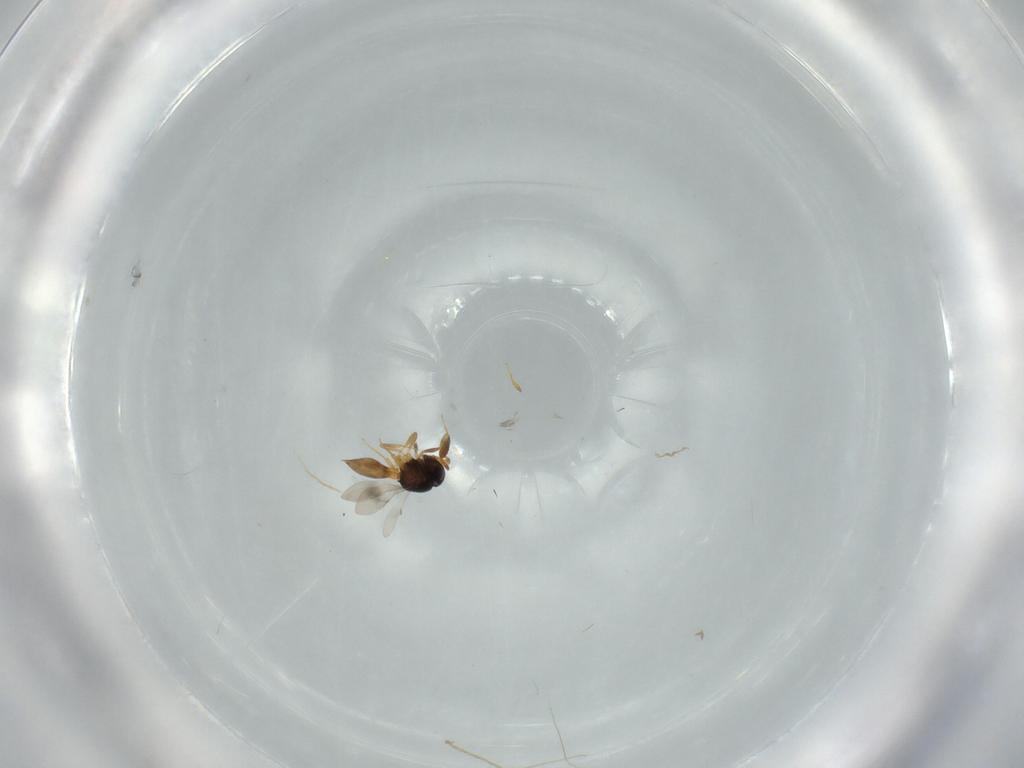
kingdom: Animalia
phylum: Arthropoda
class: Insecta
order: Hymenoptera
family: Scelionidae
